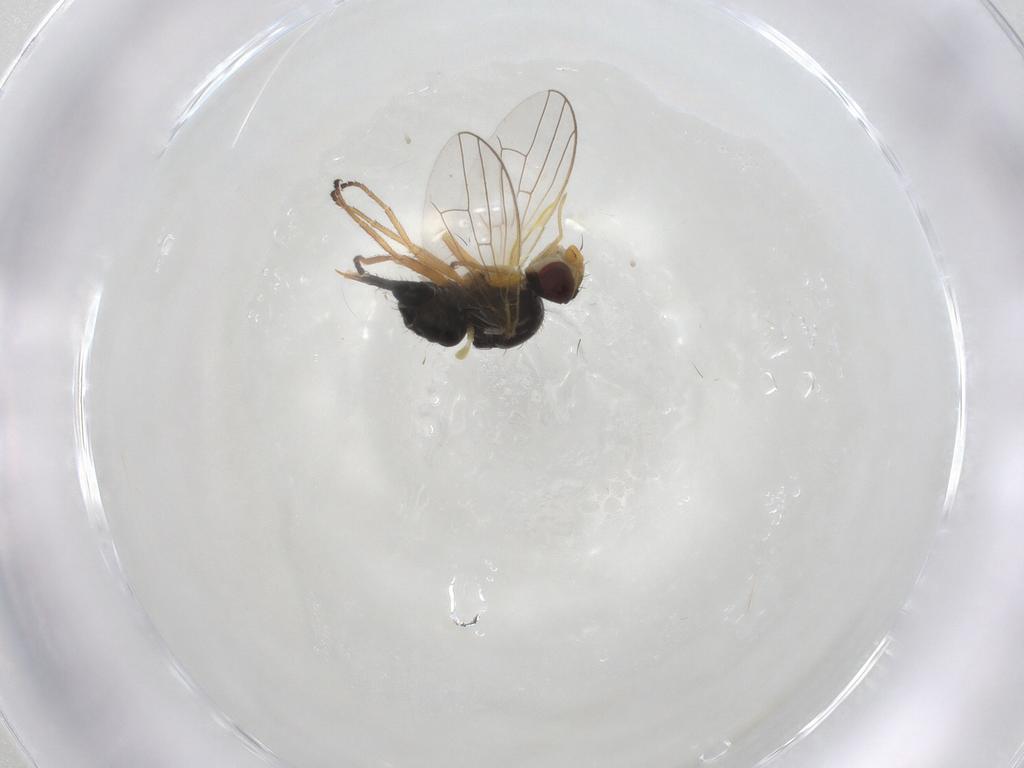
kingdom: Animalia
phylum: Arthropoda
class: Insecta
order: Diptera
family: Tephritidae
